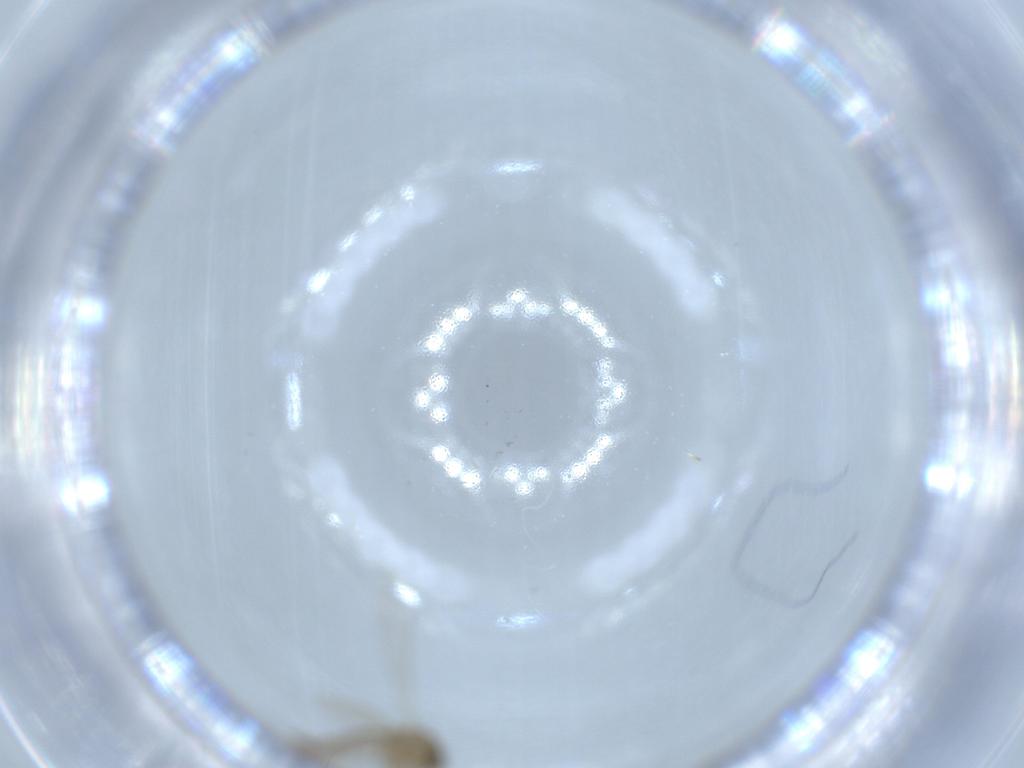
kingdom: Animalia
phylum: Arthropoda
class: Insecta
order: Diptera
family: Psychodidae
